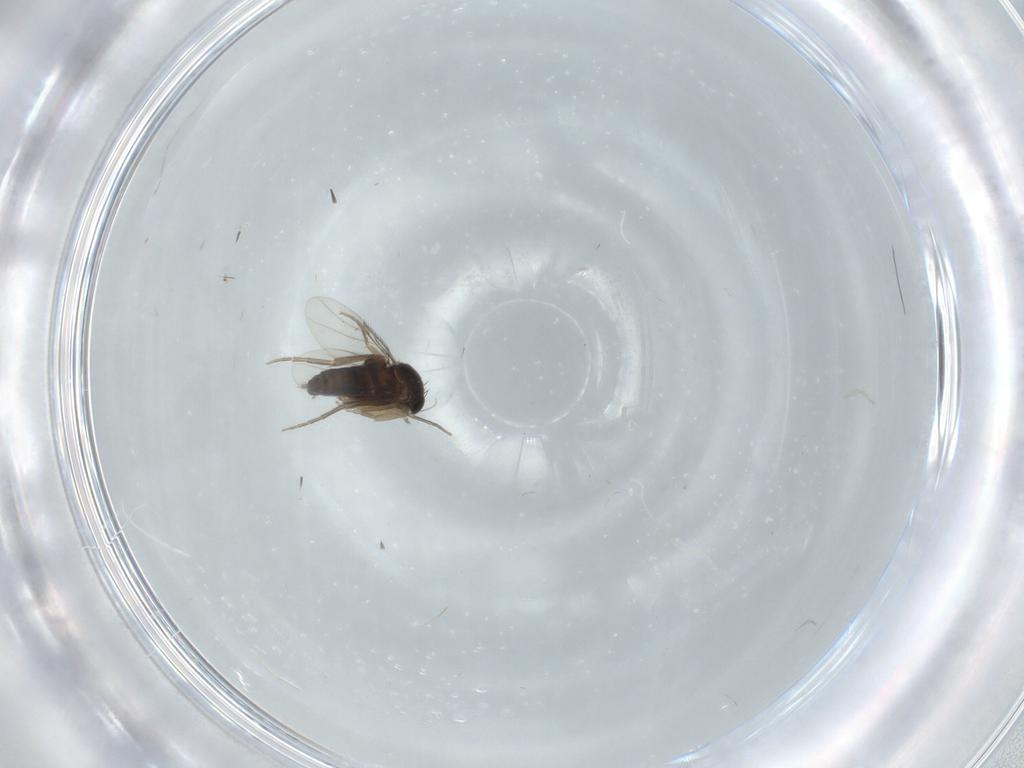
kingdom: Animalia
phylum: Arthropoda
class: Insecta
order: Diptera
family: Phoridae
